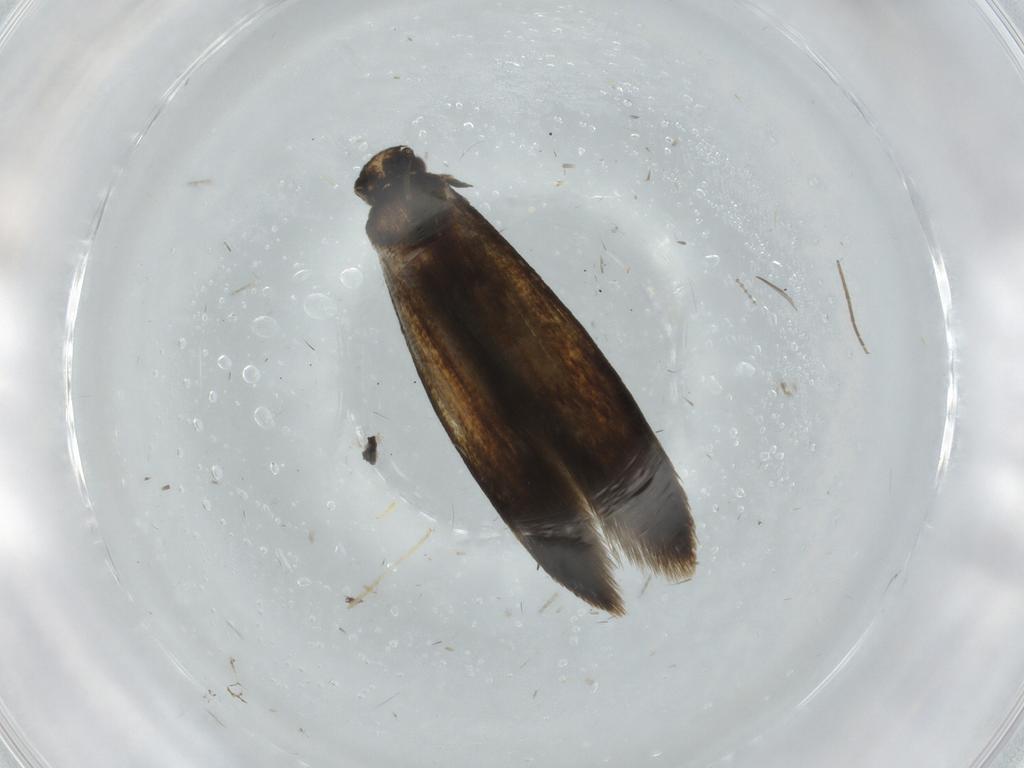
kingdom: Animalia
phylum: Arthropoda
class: Insecta
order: Lepidoptera
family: Tineidae
